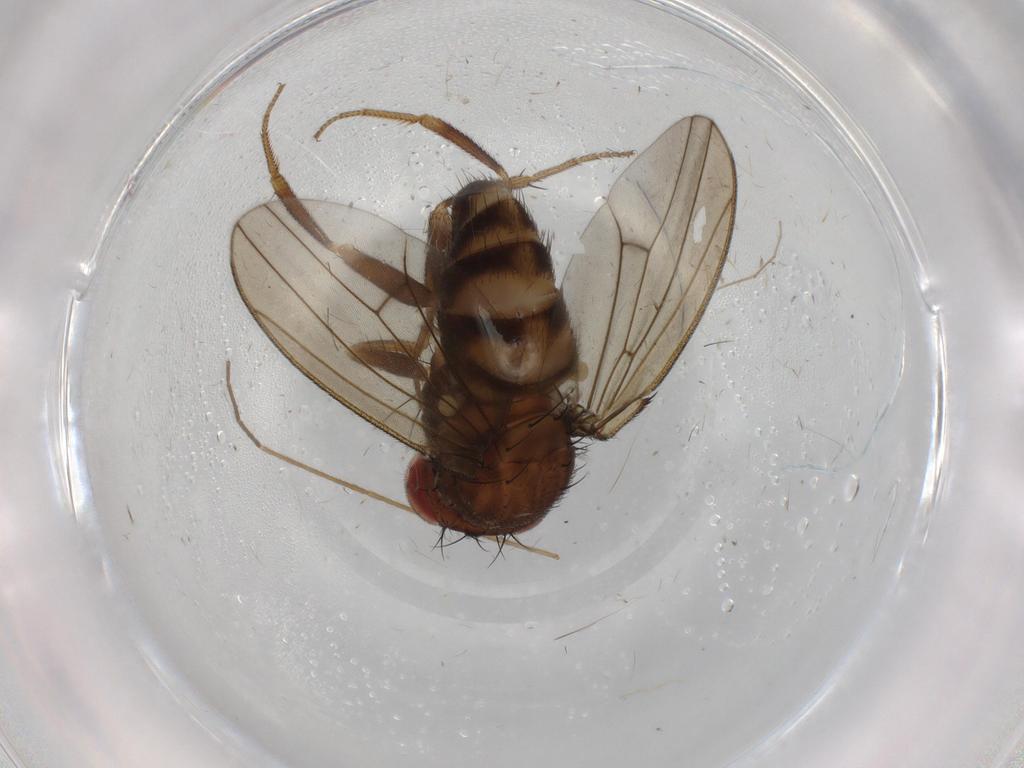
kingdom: Animalia
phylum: Arthropoda
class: Insecta
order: Diptera
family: Drosophilidae
